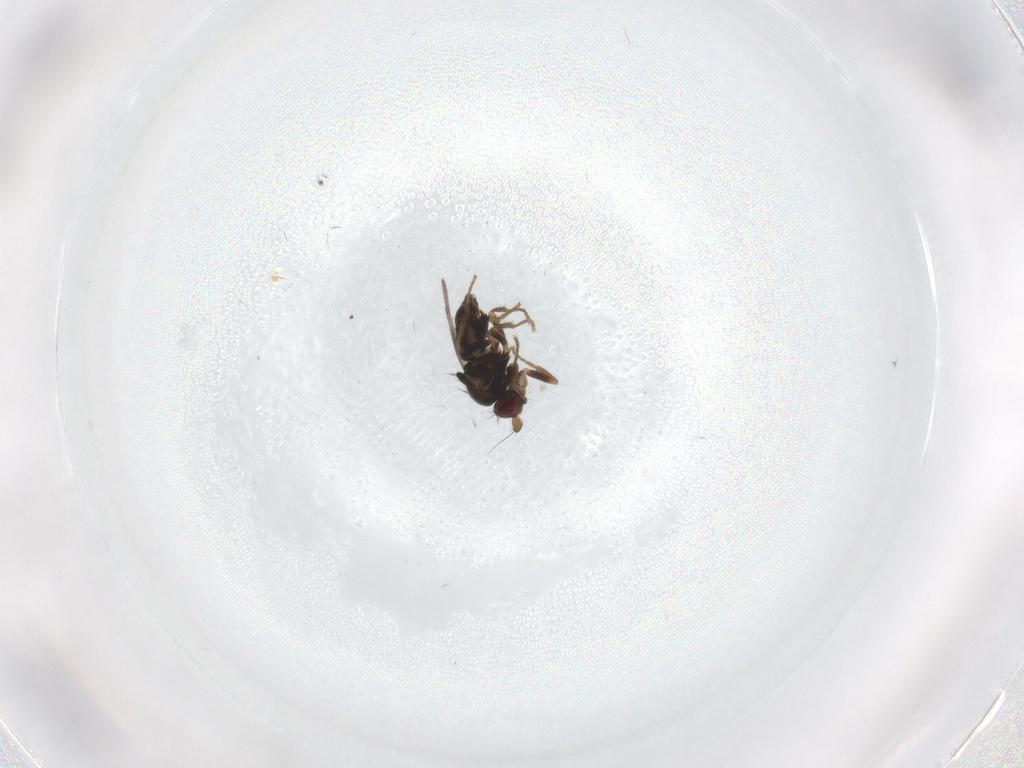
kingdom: Animalia
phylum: Arthropoda
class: Insecta
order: Diptera
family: Sphaeroceridae
